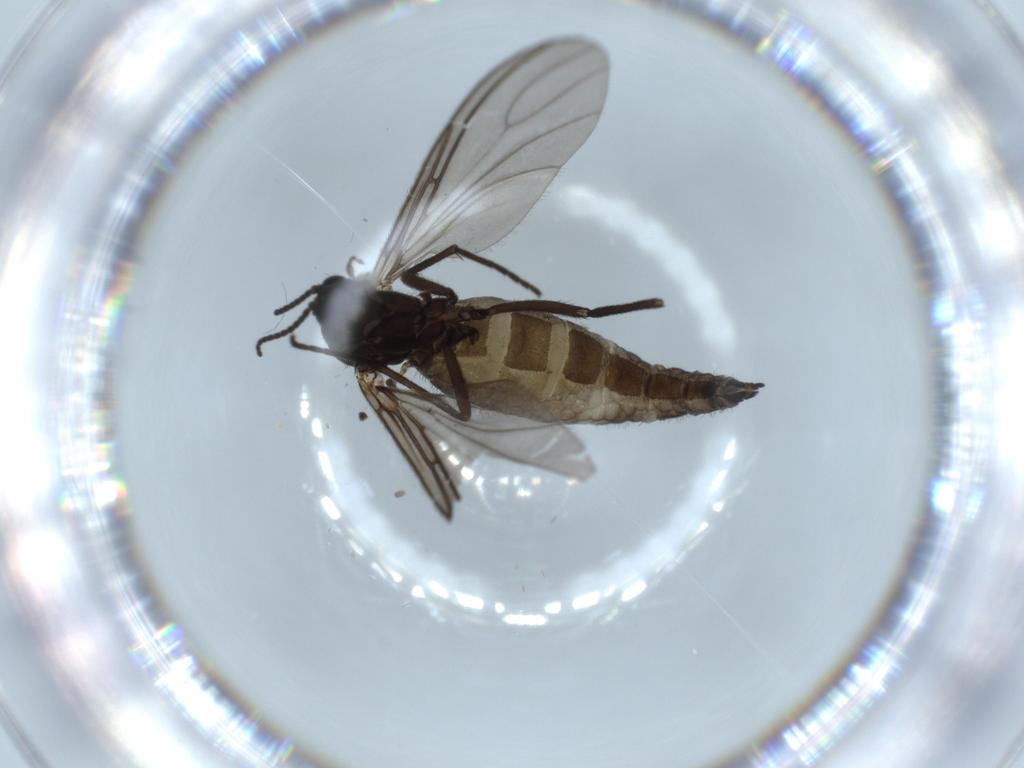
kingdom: Animalia
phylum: Arthropoda
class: Insecta
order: Diptera
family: Sciaridae
